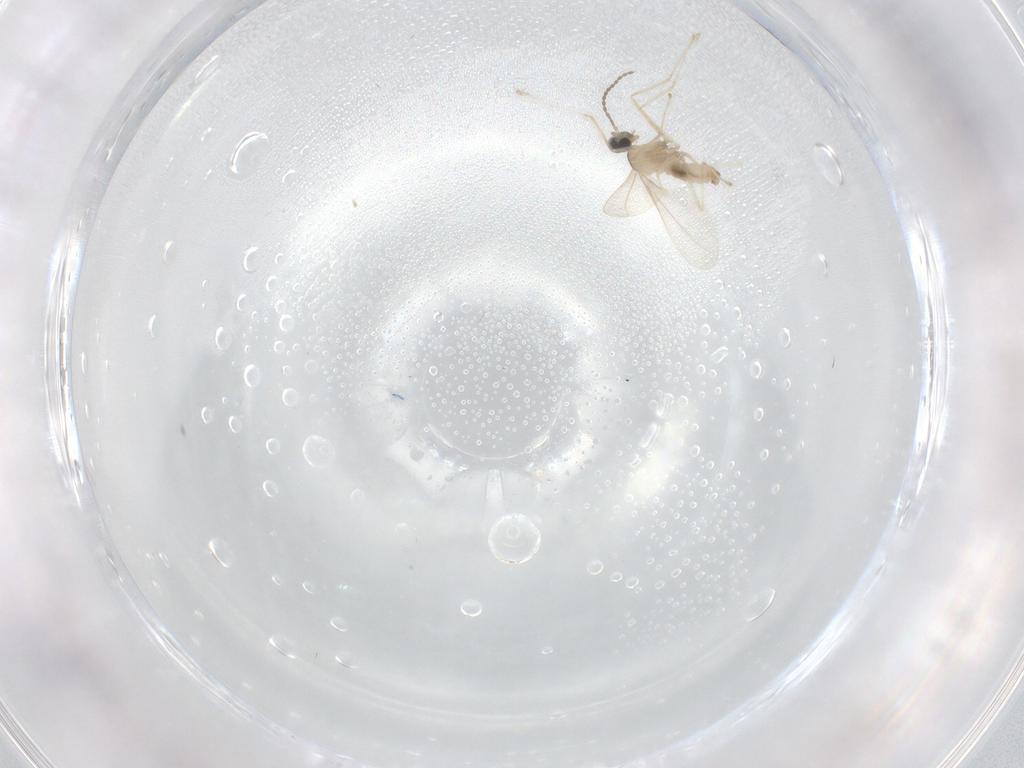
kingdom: Animalia
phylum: Arthropoda
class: Insecta
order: Diptera
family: Cecidomyiidae
